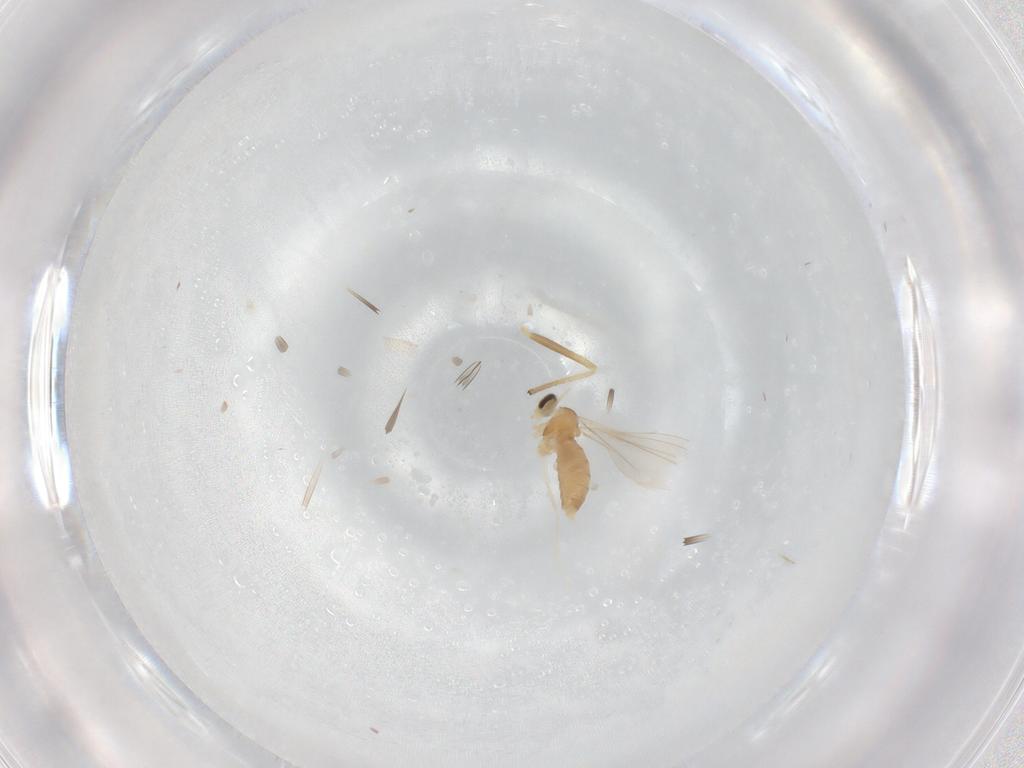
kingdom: Animalia
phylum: Arthropoda
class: Insecta
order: Diptera
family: Cecidomyiidae
